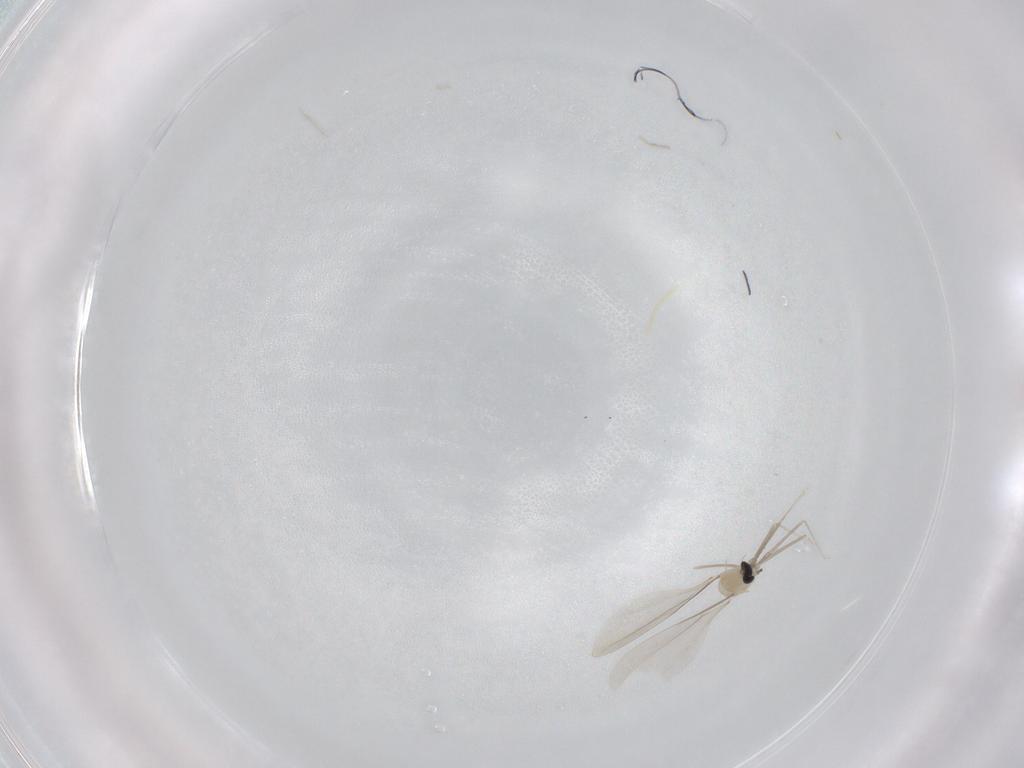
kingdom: Animalia
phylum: Arthropoda
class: Insecta
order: Diptera
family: Cecidomyiidae
